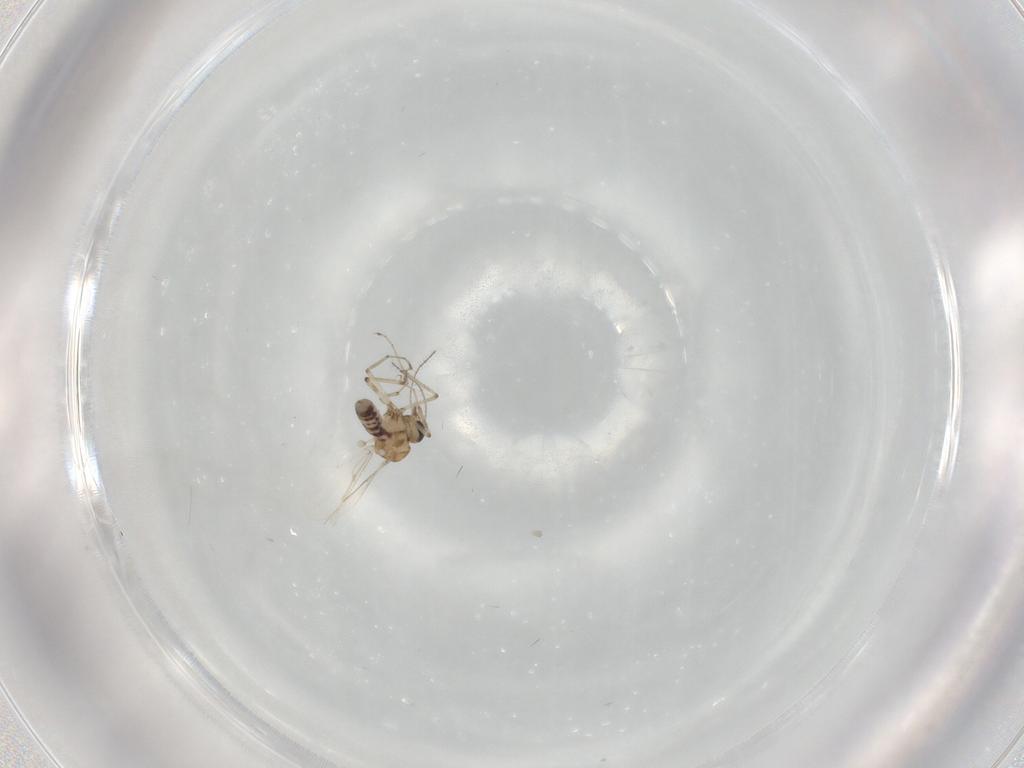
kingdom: Animalia
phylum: Arthropoda
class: Insecta
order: Diptera
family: Ceratopogonidae
